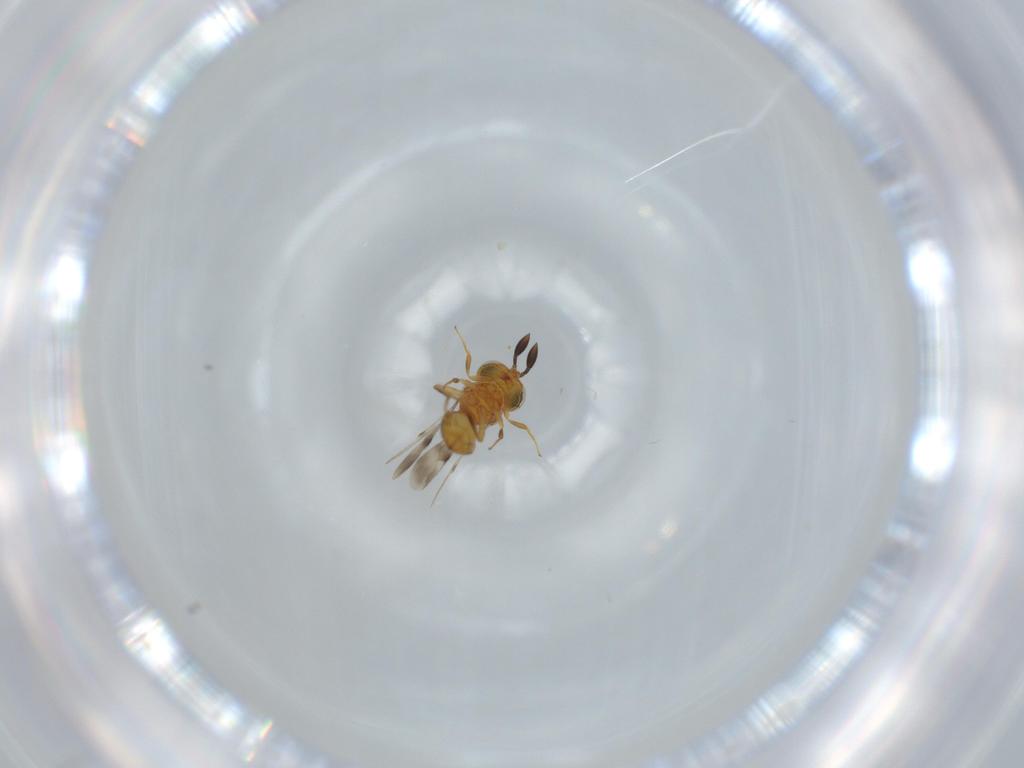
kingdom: Animalia
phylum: Arthropoda
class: Insecta
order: Hymenoptera
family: Scelionidae
